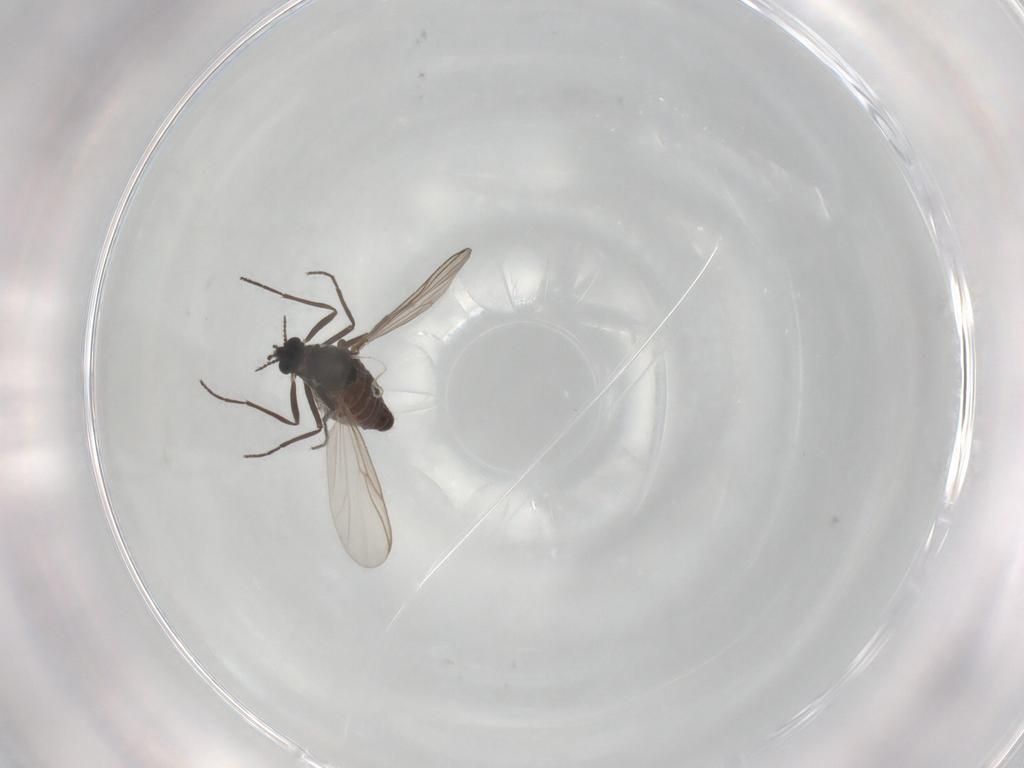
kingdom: Animalia
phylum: Arthropoda
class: Insecta
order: Diptera
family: Chironomidae
